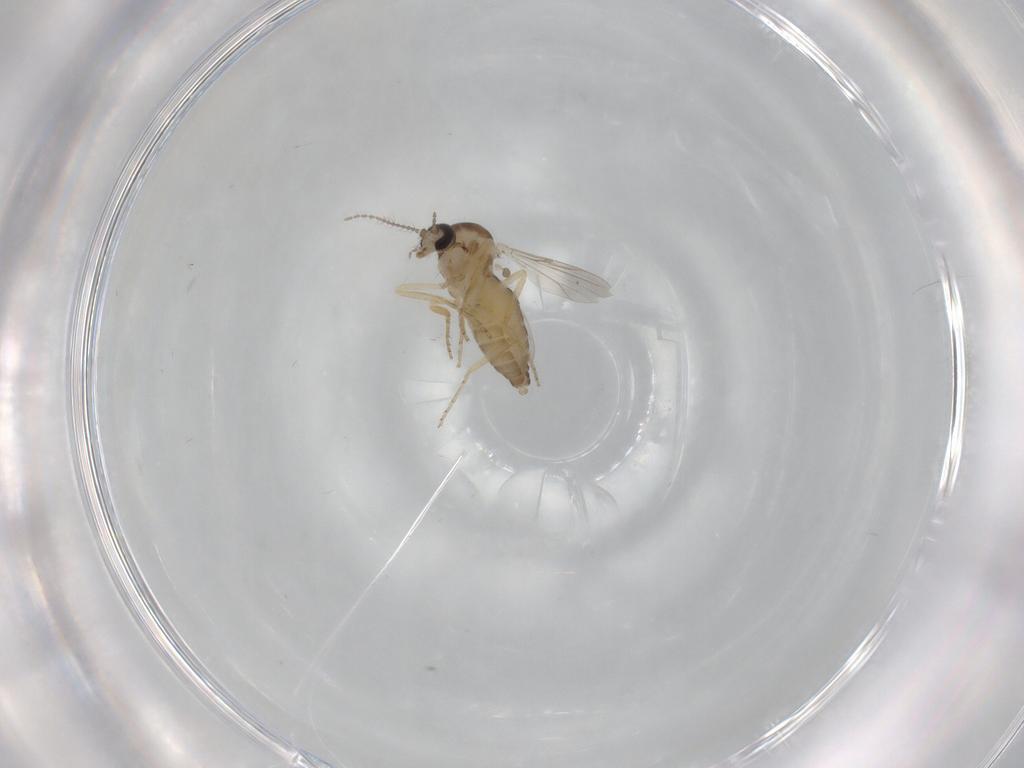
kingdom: Animalia
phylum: Arthropoda
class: Insecta
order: Diptera
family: Ceratopogonidae
